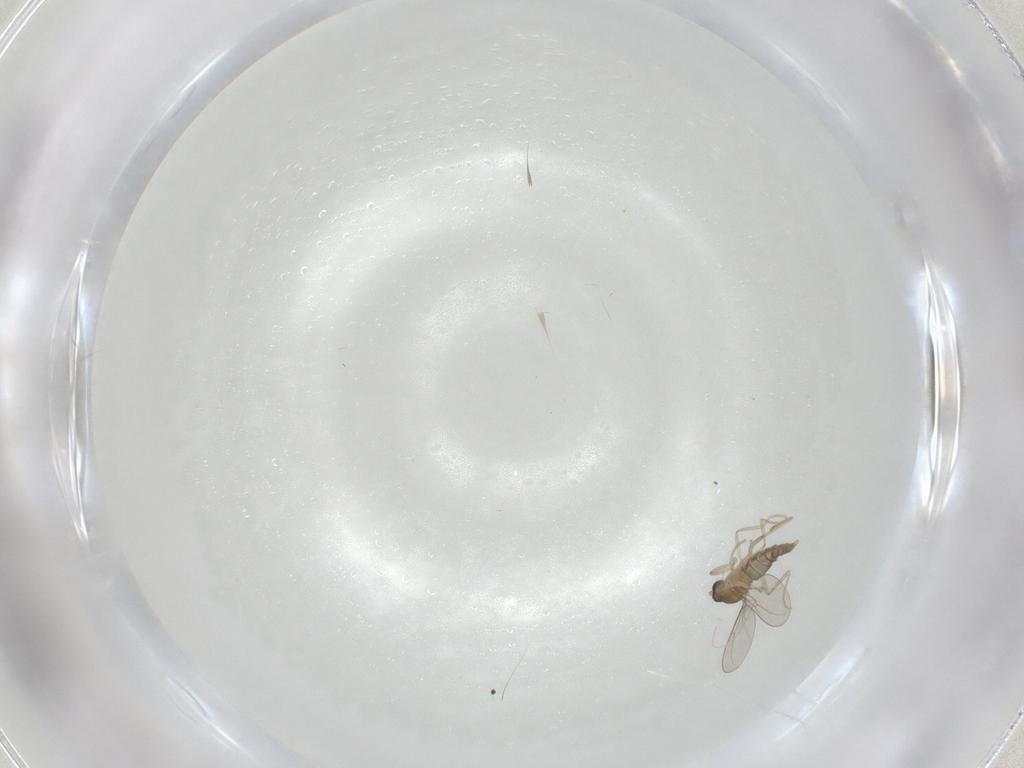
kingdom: Animalia
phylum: Arthropoda
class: Insecta
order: Diptera
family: Cecidomyiidae
